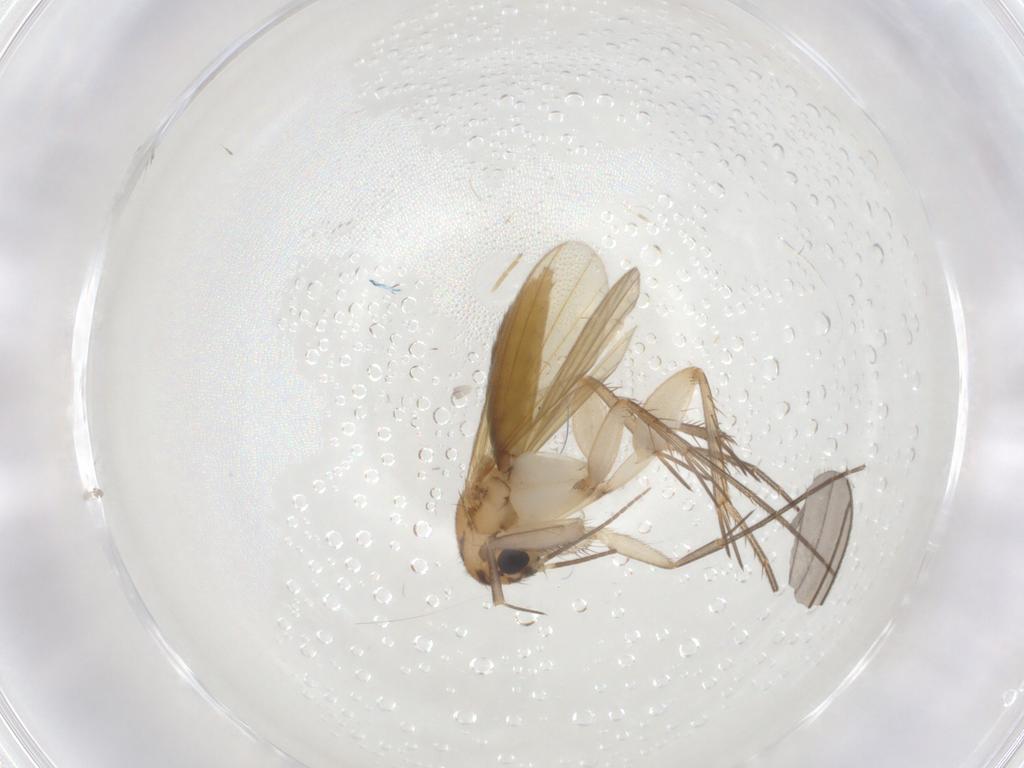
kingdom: Animalia
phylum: Arthropoda
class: Insecta
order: Diptera
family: Mycetophilidae
